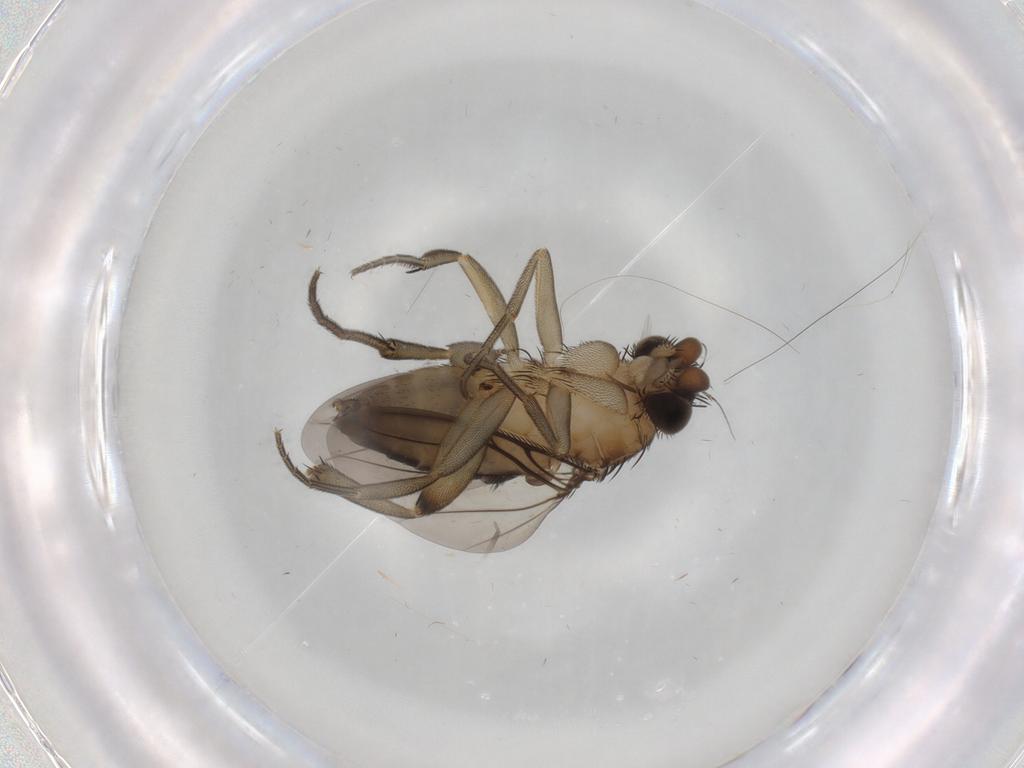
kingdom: Animalia
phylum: Arthropoda
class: Insecta
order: Diptera
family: Phoridae
